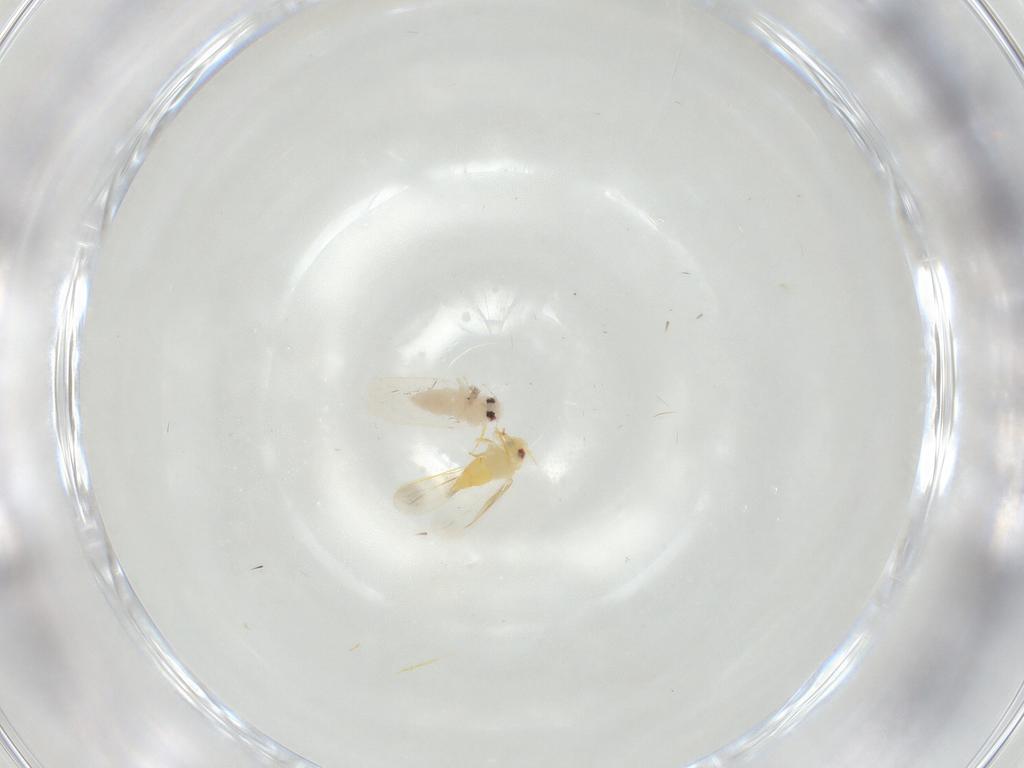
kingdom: Animalia
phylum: Arthropoda
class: Insecta
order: Hemiptera
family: Aleyrodidae
